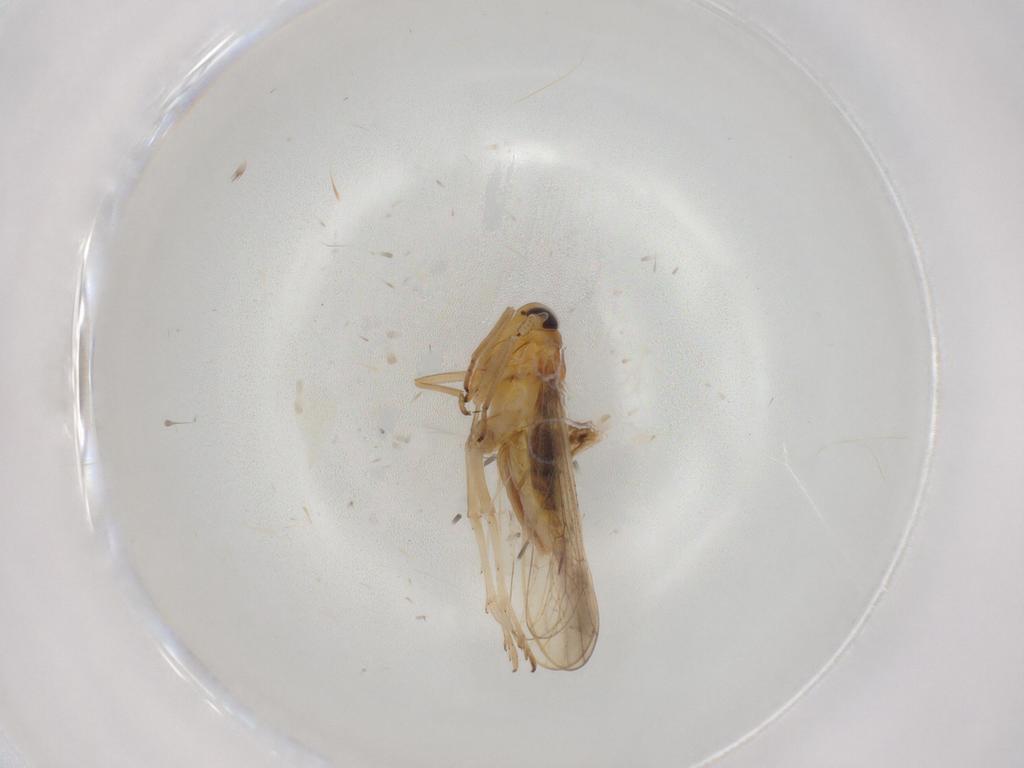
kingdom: Animalia
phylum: Arthropoda
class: Insecta
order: Hemiptera
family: Delphacidae
